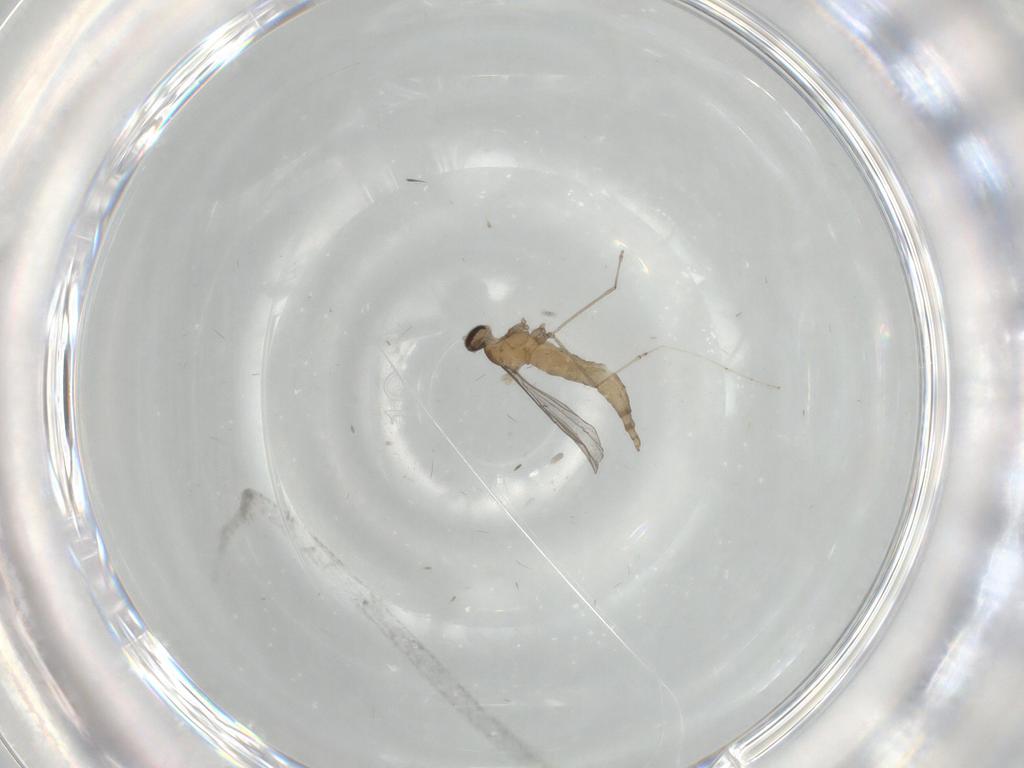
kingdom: Animalia
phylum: Arthropoda
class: Insecta
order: Diptera
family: Cecidomyiidae
